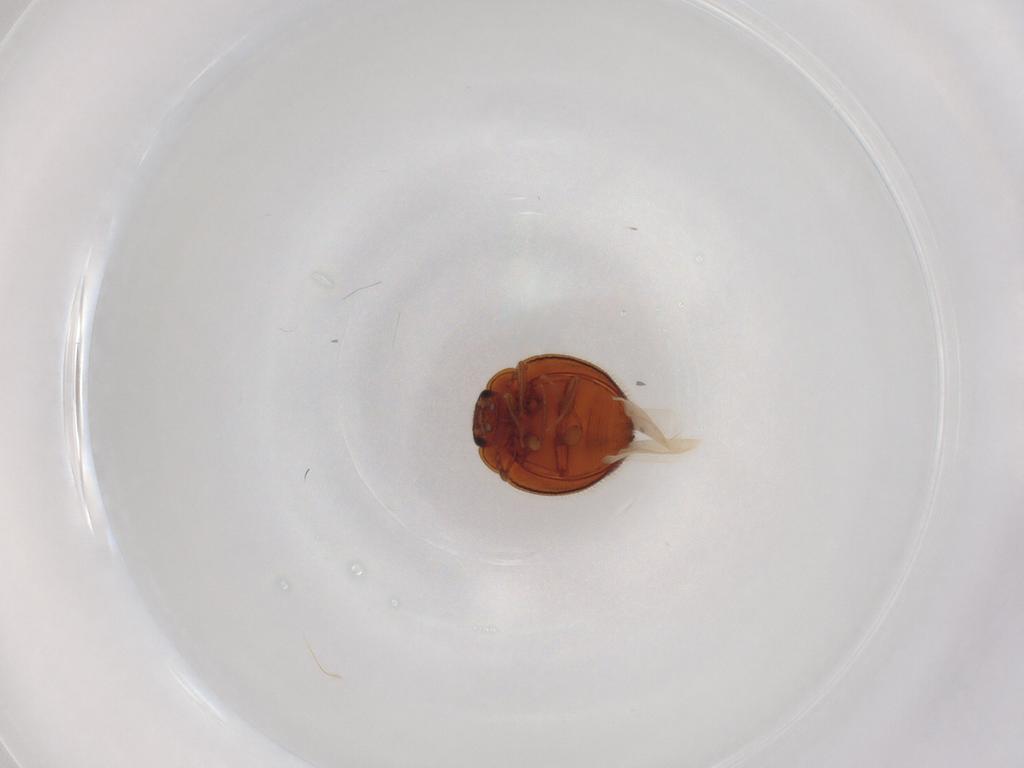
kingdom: Animalia
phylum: Arthropoda
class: Insecta
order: Coleoptera
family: Anamorphidae
